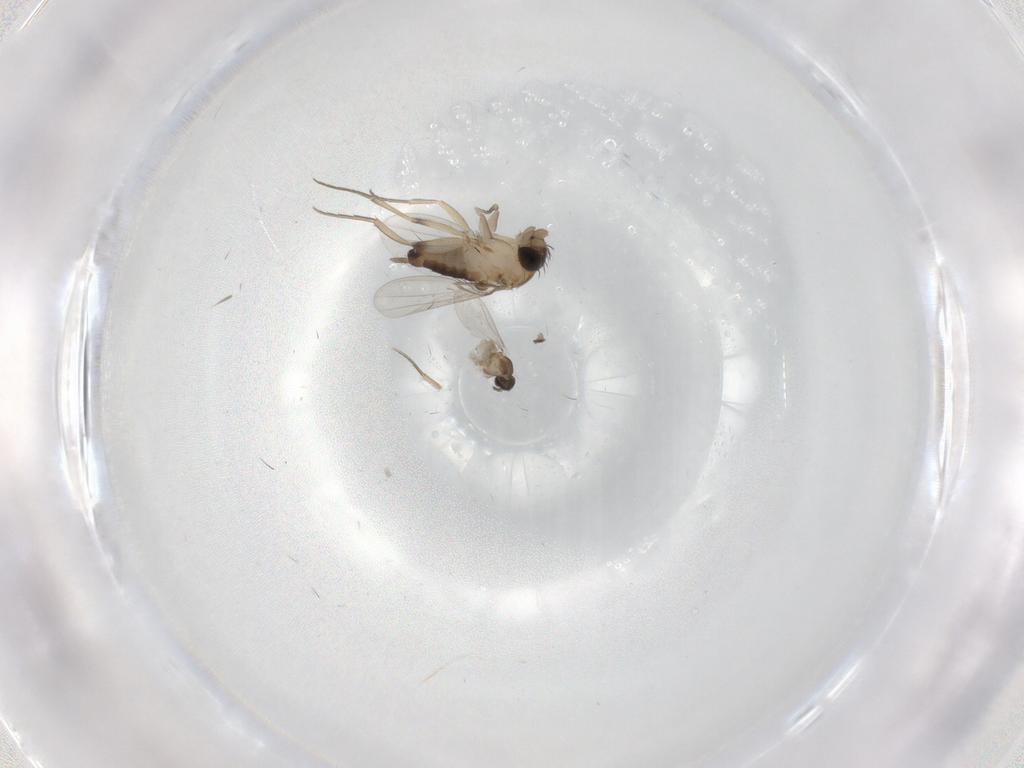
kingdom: Animalia
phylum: Arthropoda
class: Insecta
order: Diptera
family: Phoridae
